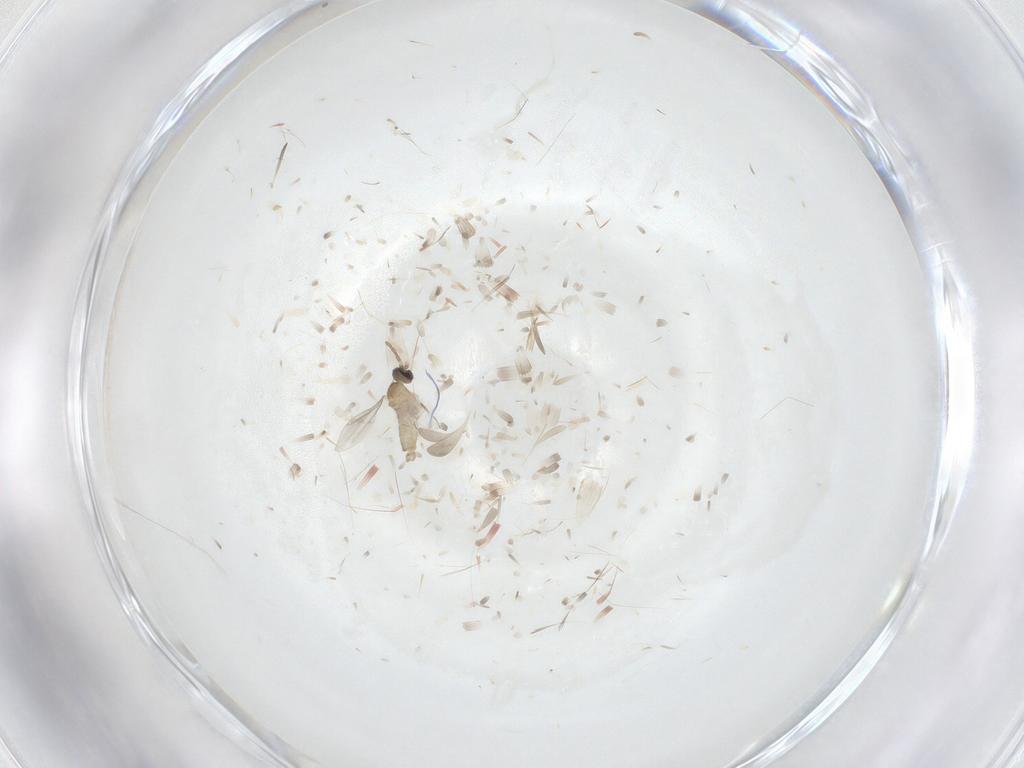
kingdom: Animalia
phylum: Arthropoda
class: Insecta
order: Diptera
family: Cecidomyiidae
